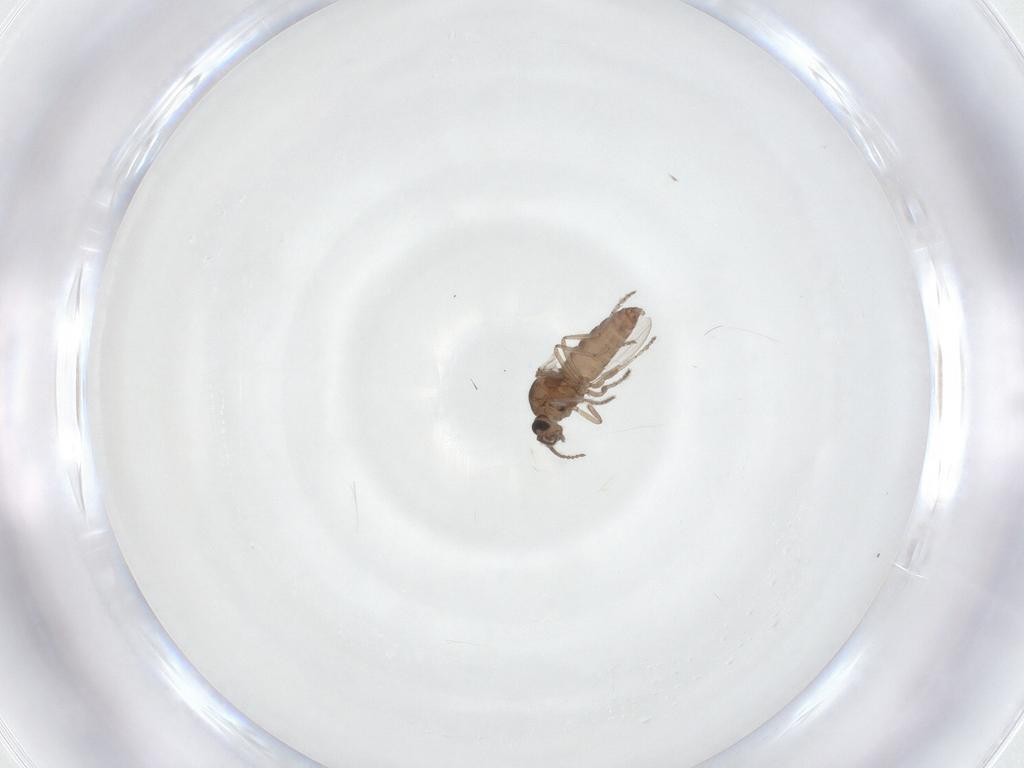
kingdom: Animalia
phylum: Arthropoda
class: Insecta
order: Diptera
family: Ceratopogonidae
